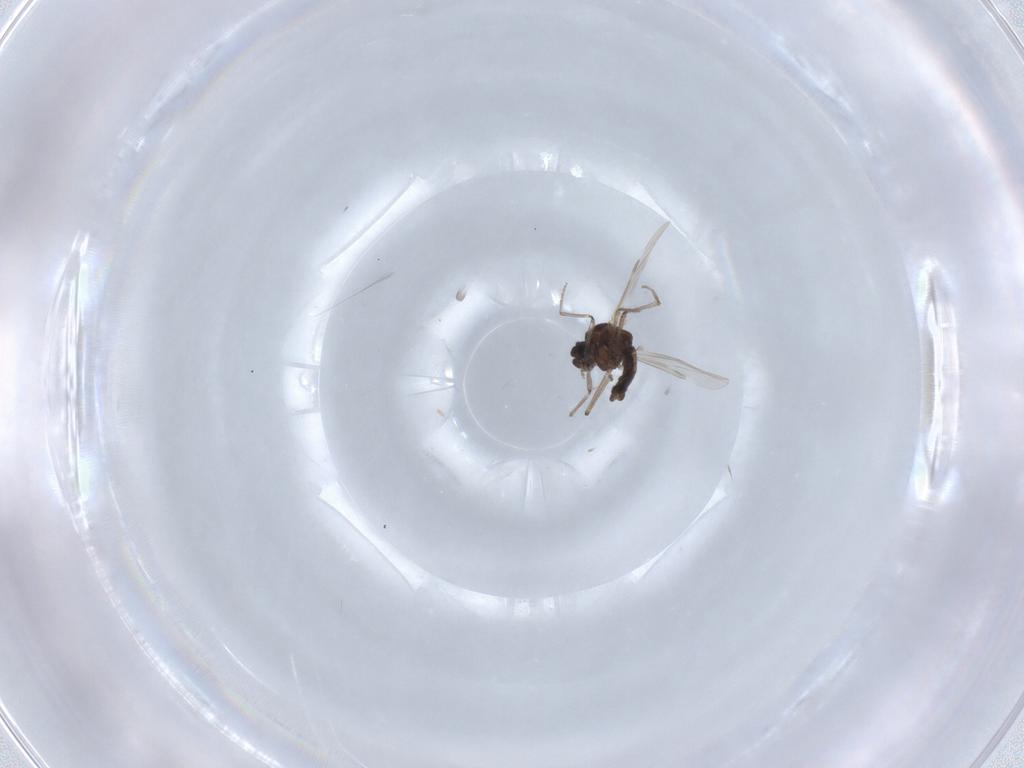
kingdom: Animalia
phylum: Arthropoda
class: Insecta
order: Diptera
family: Ceratopogonidae
